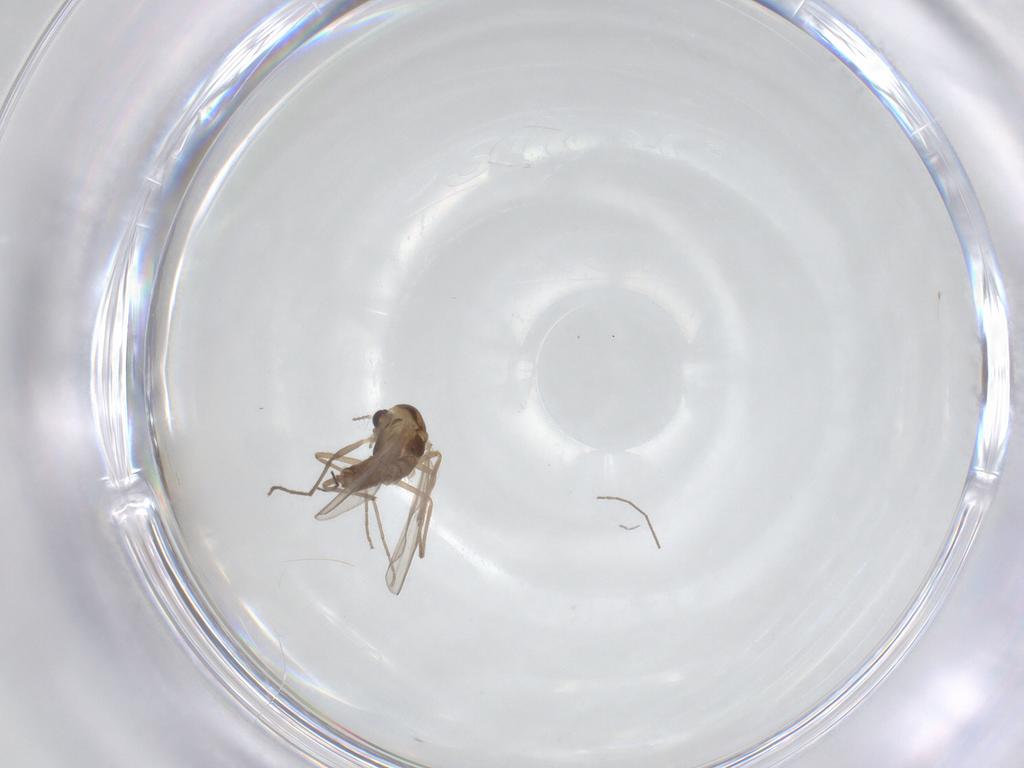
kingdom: Animalia
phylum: Arthropoda
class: Insecta
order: Diptera
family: Chironomidae
